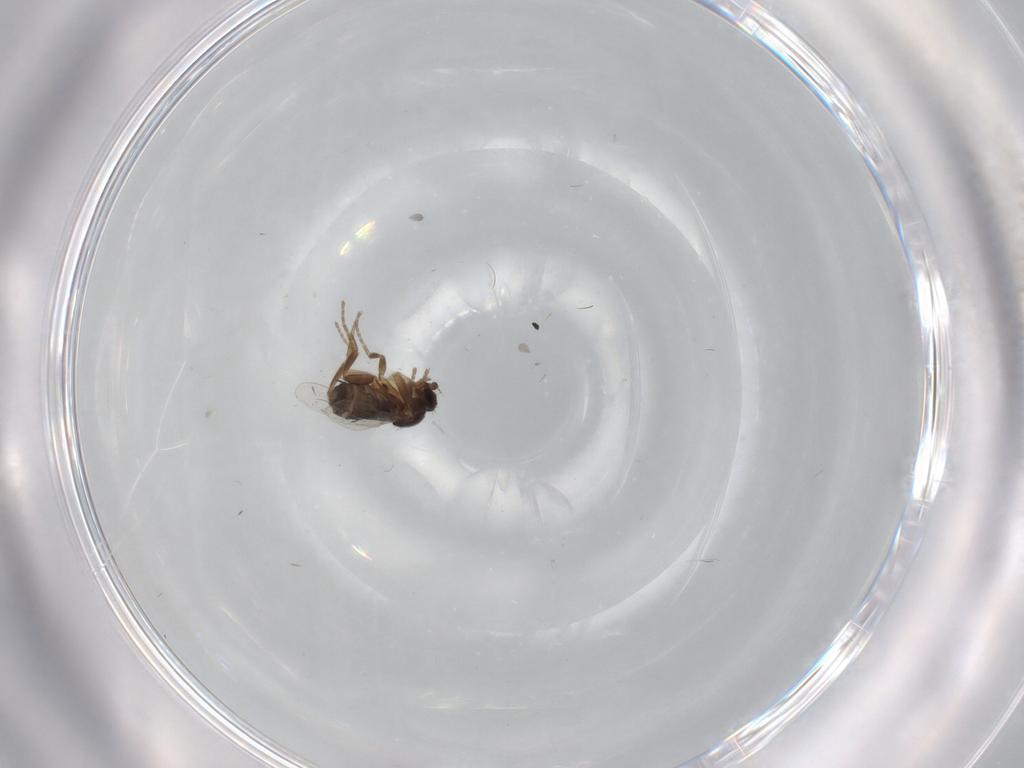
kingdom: Animalia
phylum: Arthropoda
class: Insecta
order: Diptera
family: Phoridae
